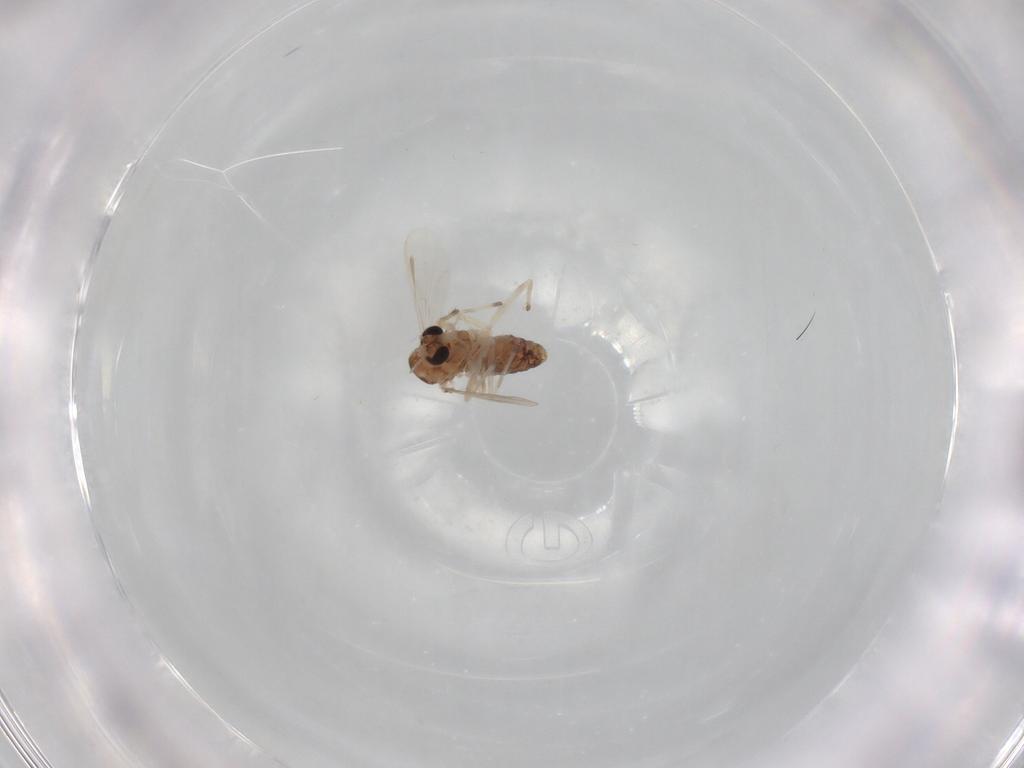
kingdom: Animalia
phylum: Arthropoda
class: Insecta
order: Diptera
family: Chironomidae
